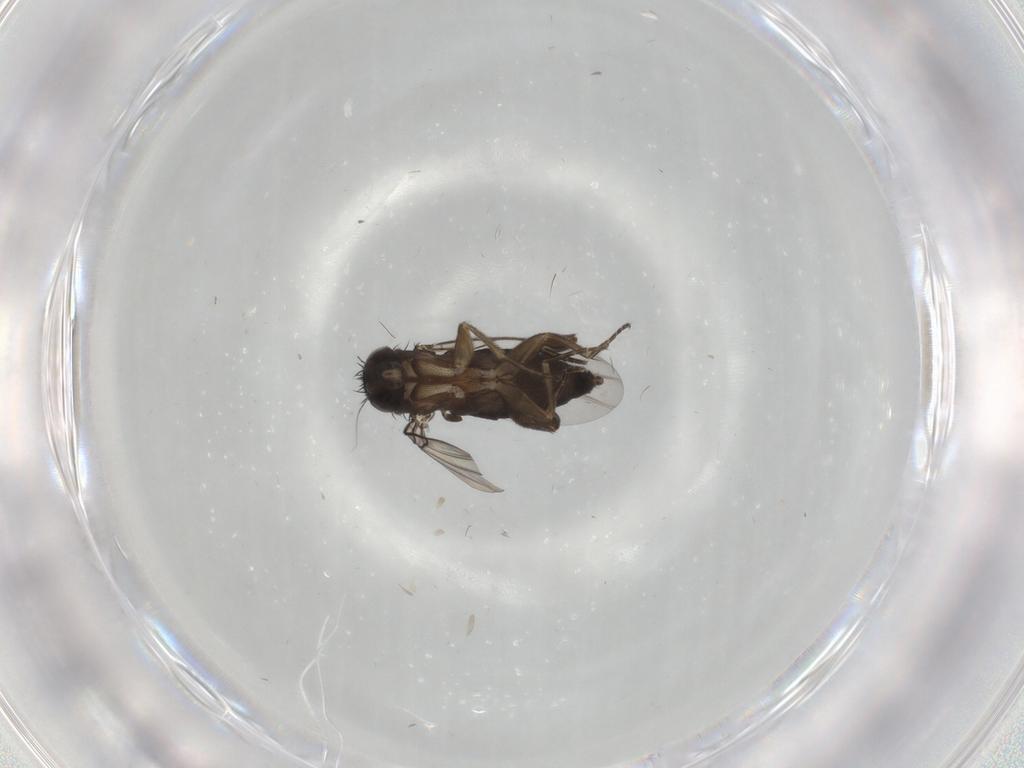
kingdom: Animalia
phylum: Arthropoda
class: Insecta
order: Diptera
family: Phoridae
